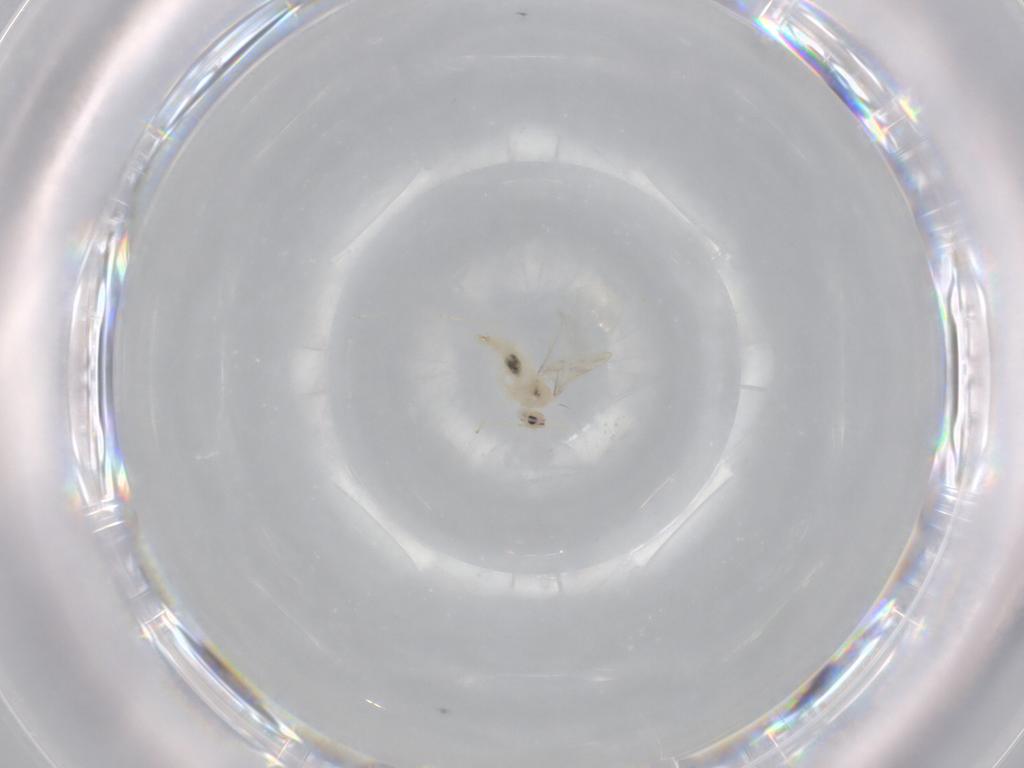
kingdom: Animalia
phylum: Arthropoda
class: Insecta
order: Diptera
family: Cecidomyiidae
